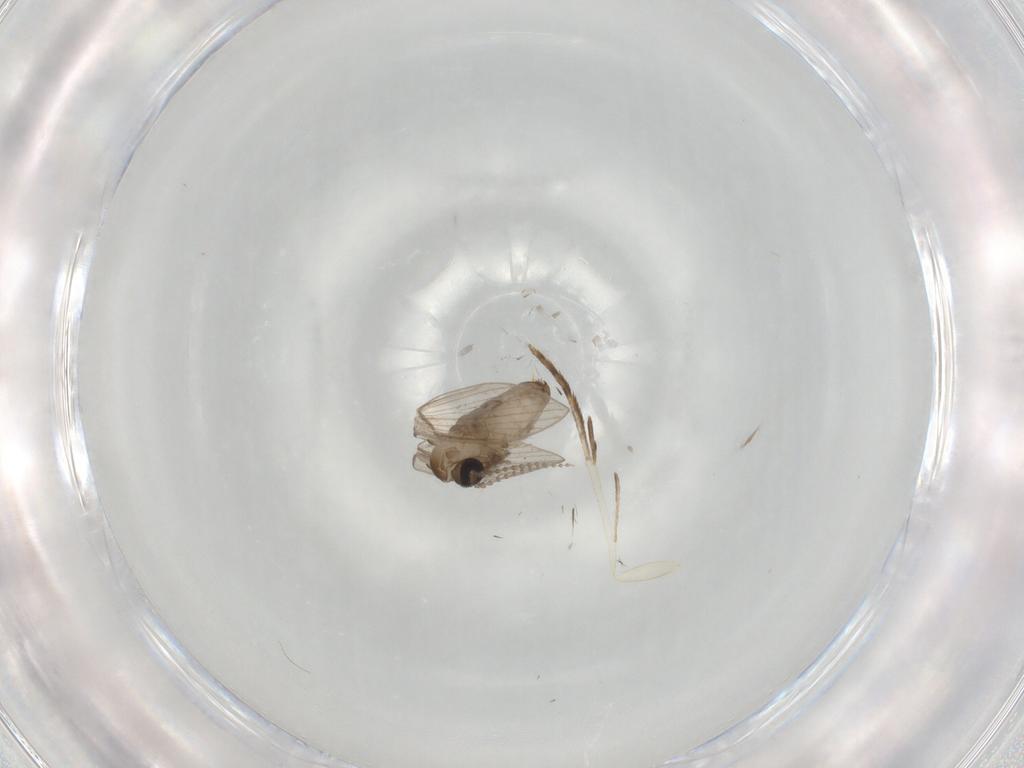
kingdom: Animalia
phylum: Arthropoda
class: Insecta
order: Diptera
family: Psychodidae
